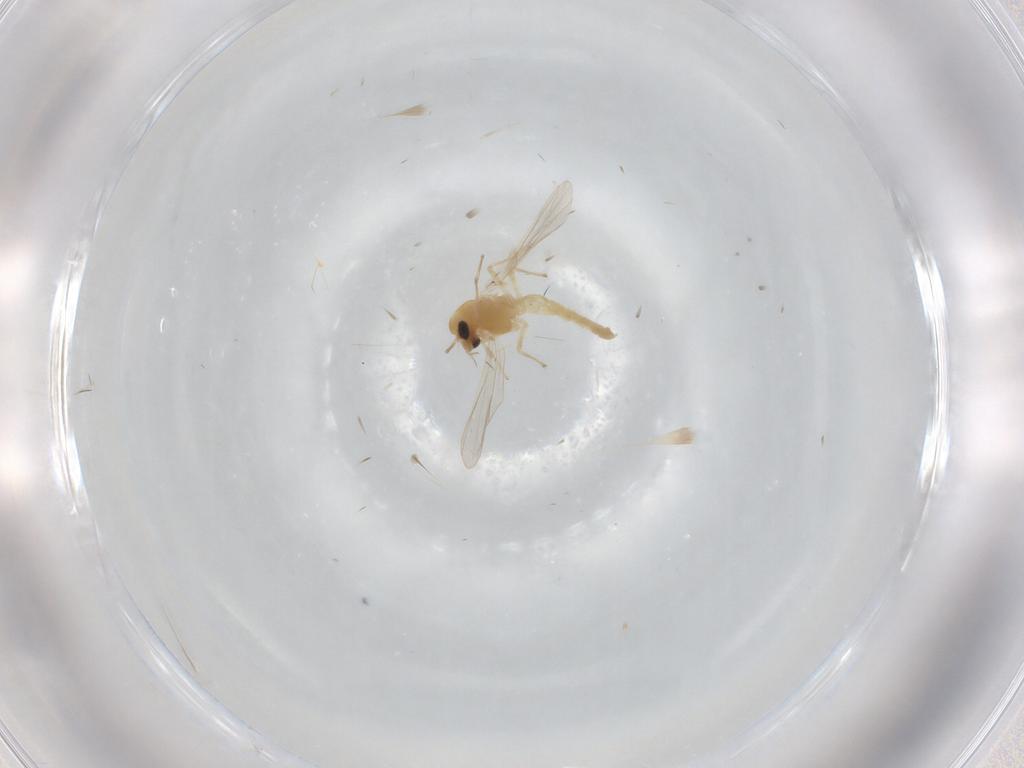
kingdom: Animalia
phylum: Arthropoda
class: Insecta
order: Diptera
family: Chironomidae
